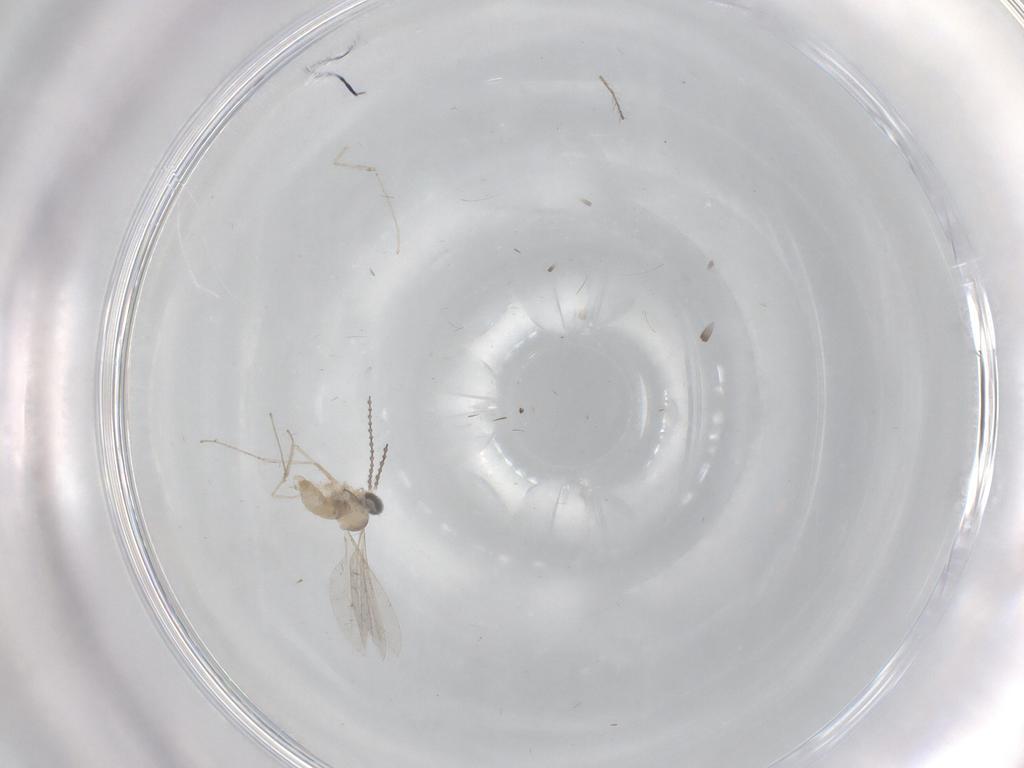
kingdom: Animalia
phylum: Arthropoda
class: Insecta
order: Diptera
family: Cecidomyiidae
